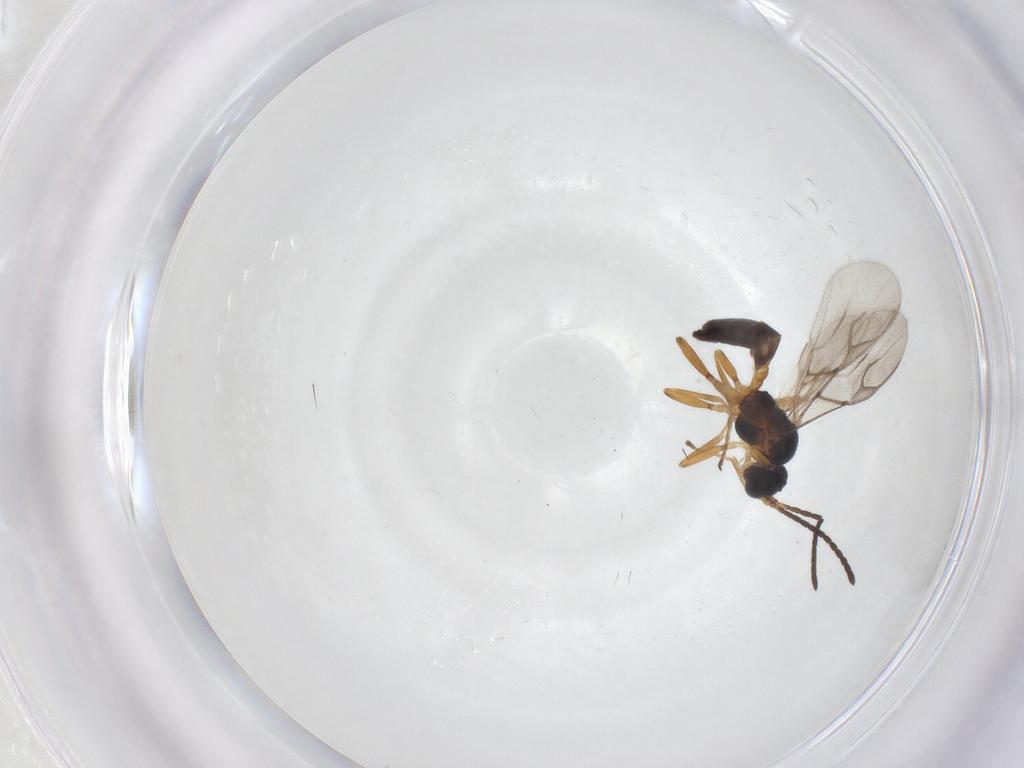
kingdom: Animalia
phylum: Arthropoda
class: Insecta
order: Hymenoptera
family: Braconidae
